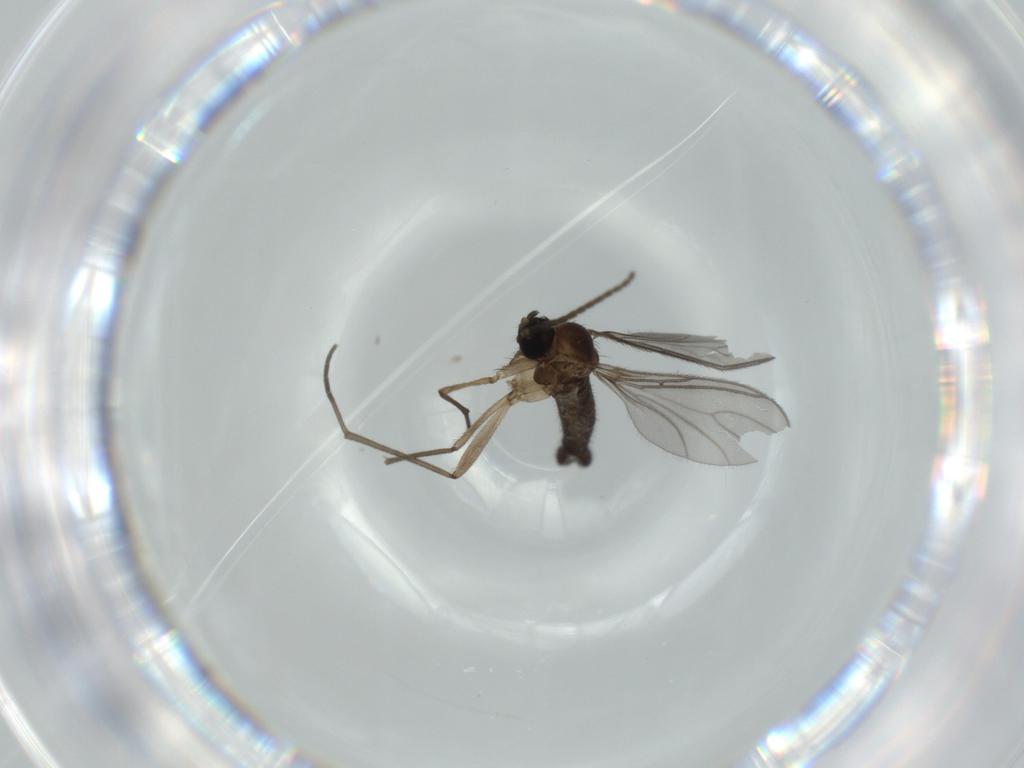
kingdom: Animalia
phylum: Arthropoda
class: Insecta
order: Diptera
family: Sciaridae
